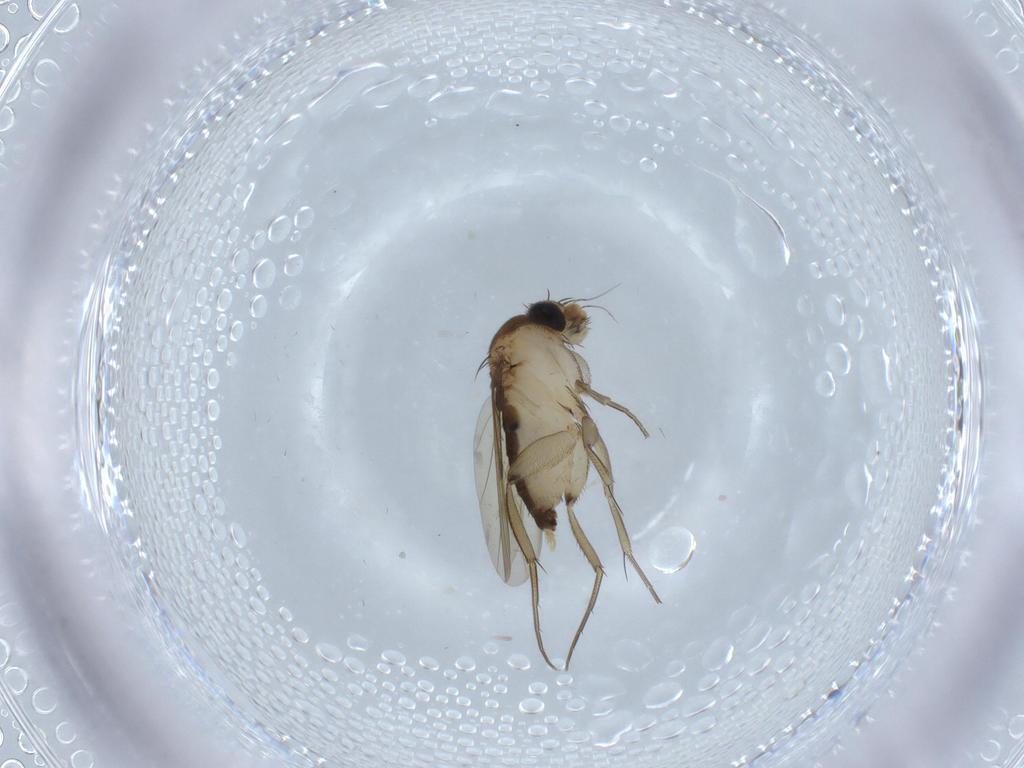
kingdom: Animalia
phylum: Arthropoda
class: Insecta
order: Diptera
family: Phoridae
